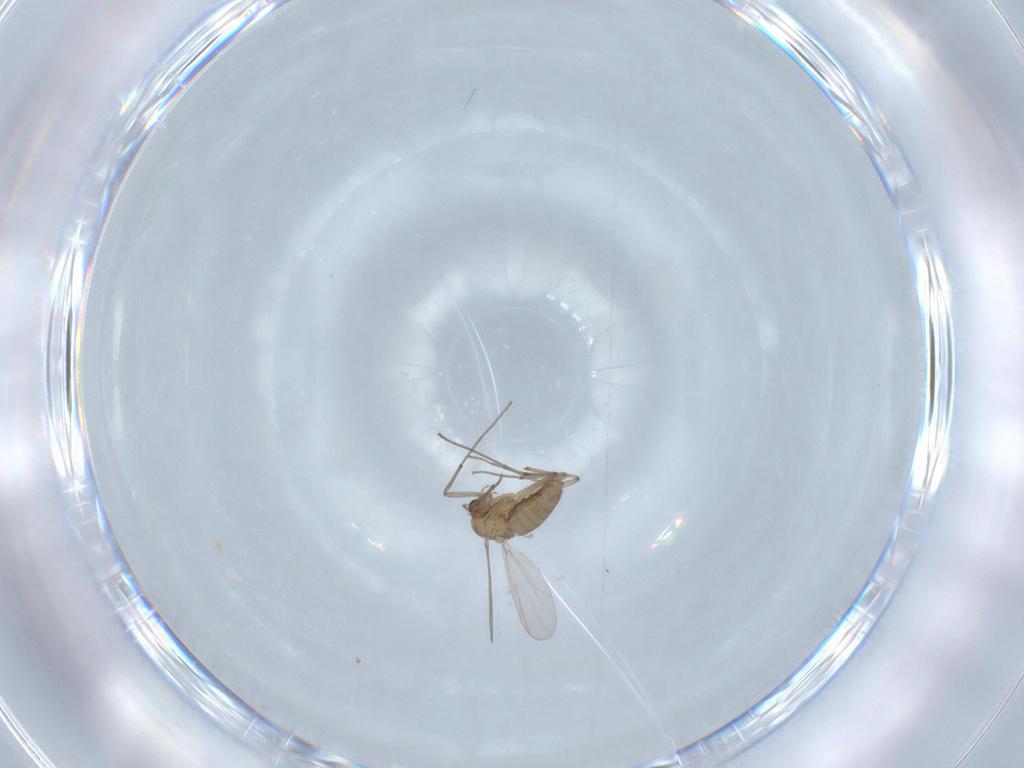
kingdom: Animalia
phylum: Arthropoda
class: Insecta
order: Diptera
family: Chironomidae
